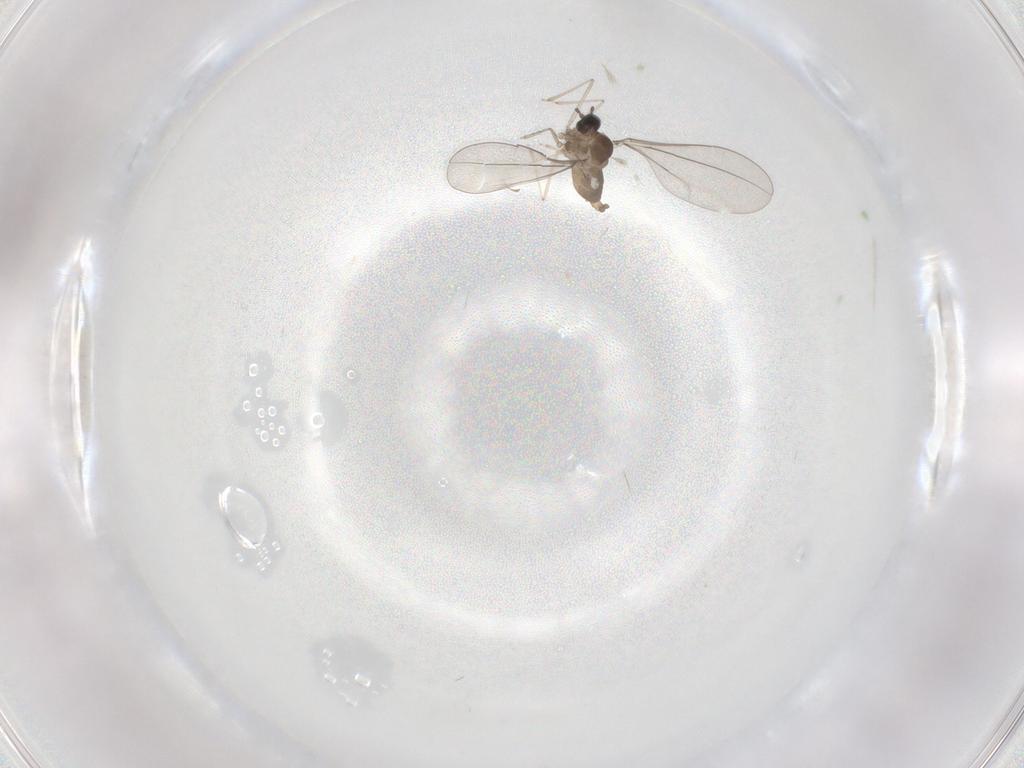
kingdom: Animalia
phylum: Arthropoda
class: Insecta
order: Diptera
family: Cecidomyiidae
